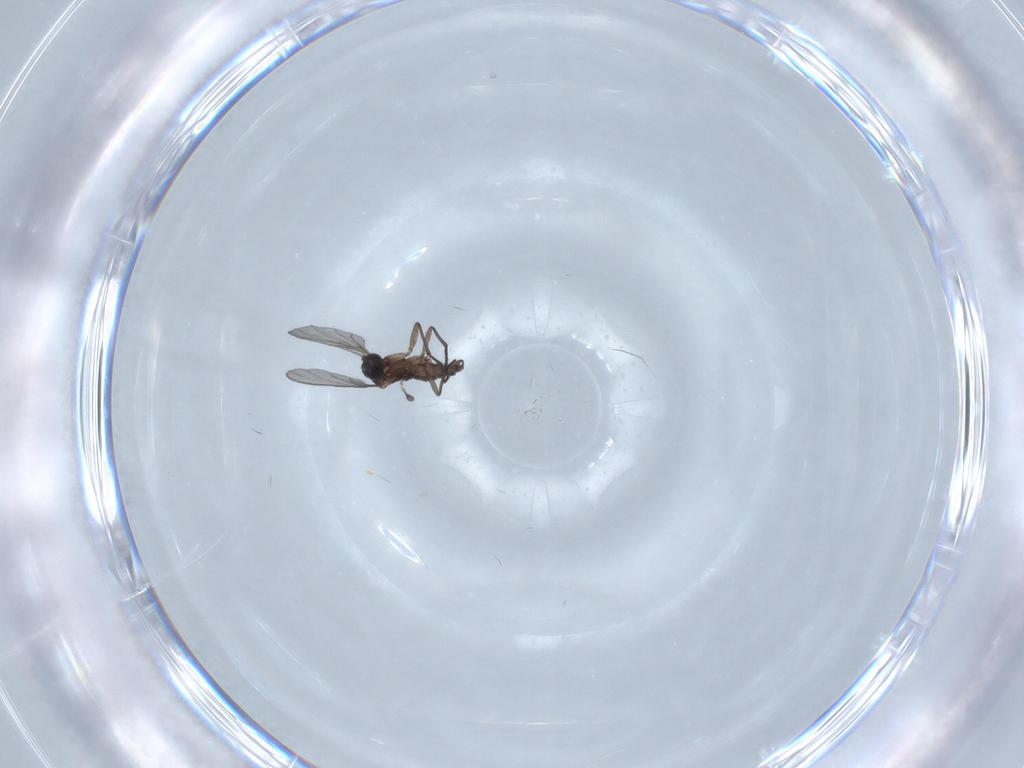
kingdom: Animalia
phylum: Arthropoda
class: Insecta
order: Diptera
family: Sciaridae
